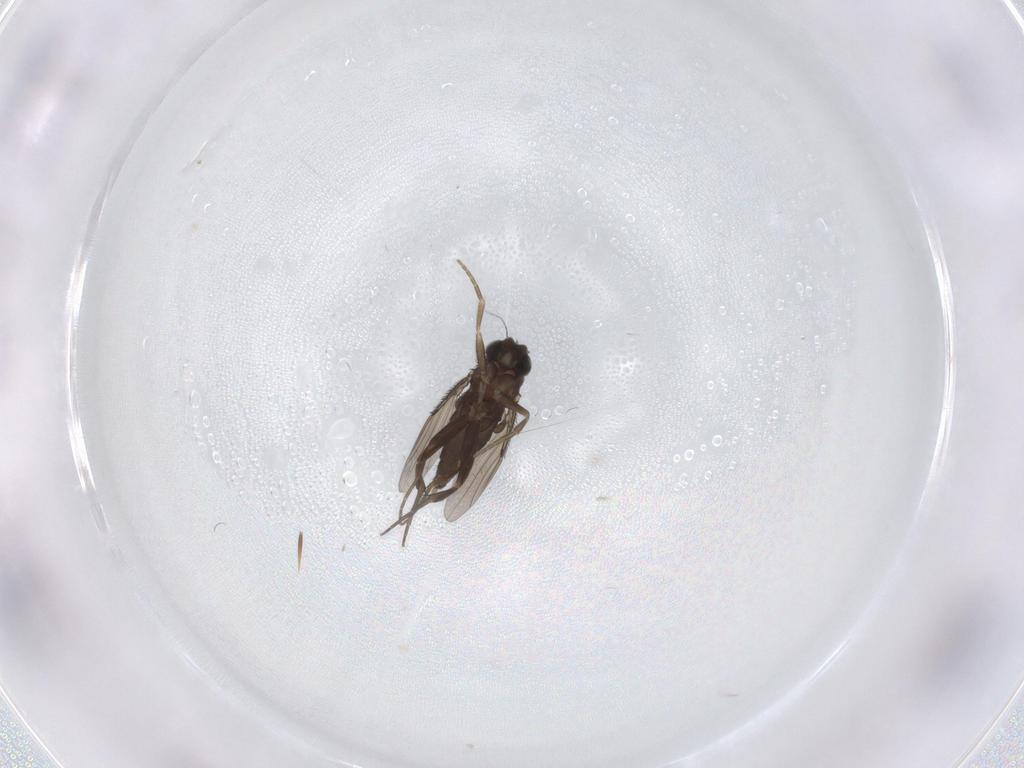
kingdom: Animalia
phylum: Arthropoda
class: Insecta
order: Diptera
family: Phoridae
